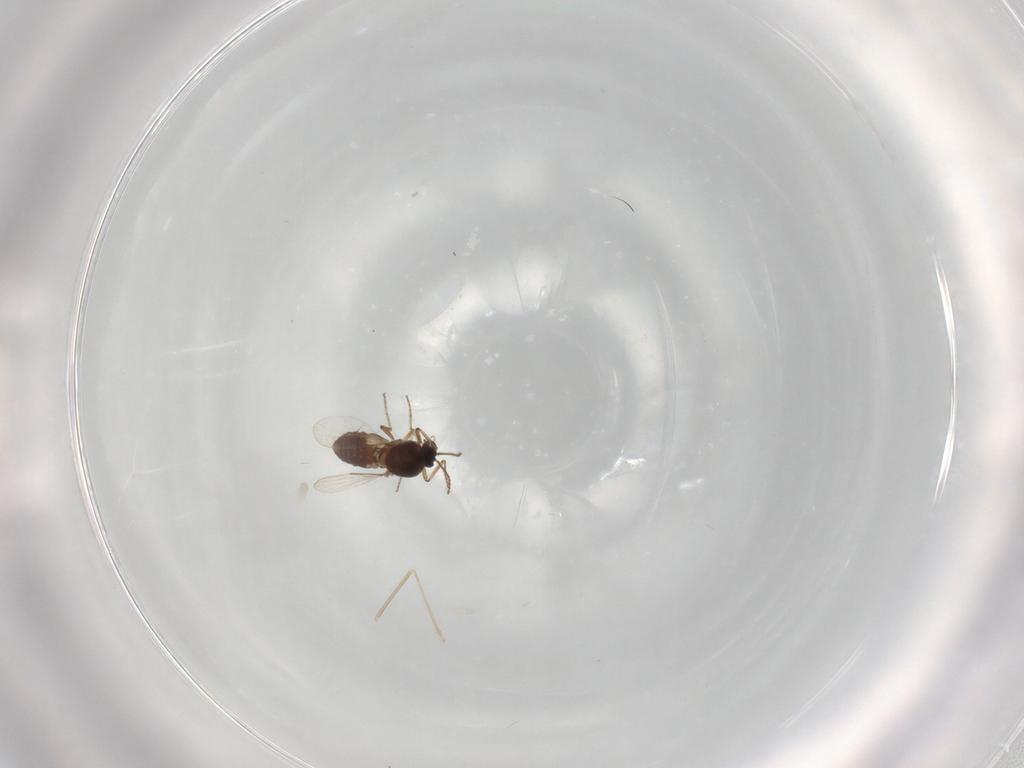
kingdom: Animalia
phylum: Arthropoda
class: Insecta
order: Diptera
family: Ceratopogonidae
